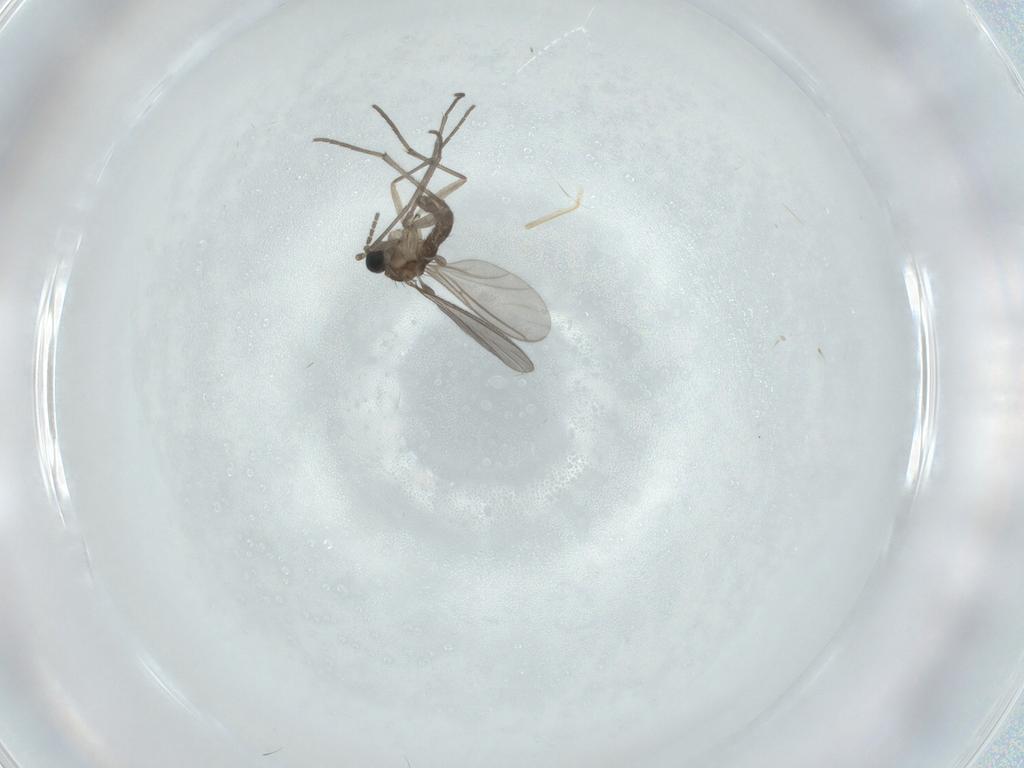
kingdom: Animalia
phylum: Arthropoda
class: Insecta
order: Diptera
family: Sciaridae
